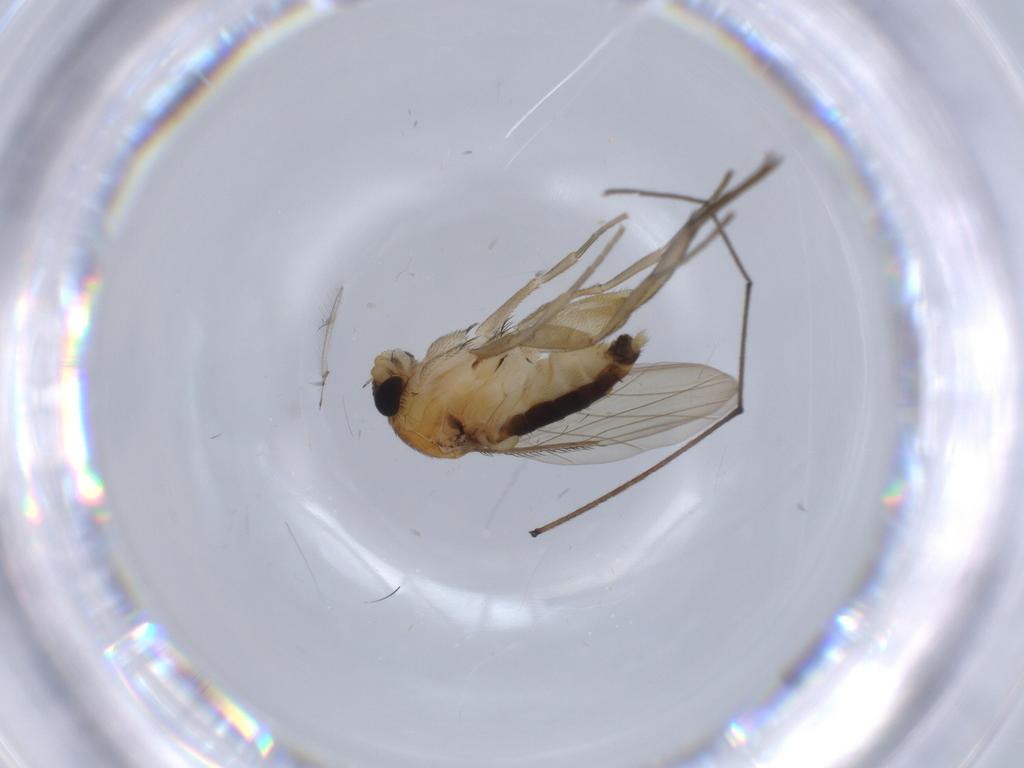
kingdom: Animalia
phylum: Arthropoda
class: Insecta
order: Diptera
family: Phoridae
